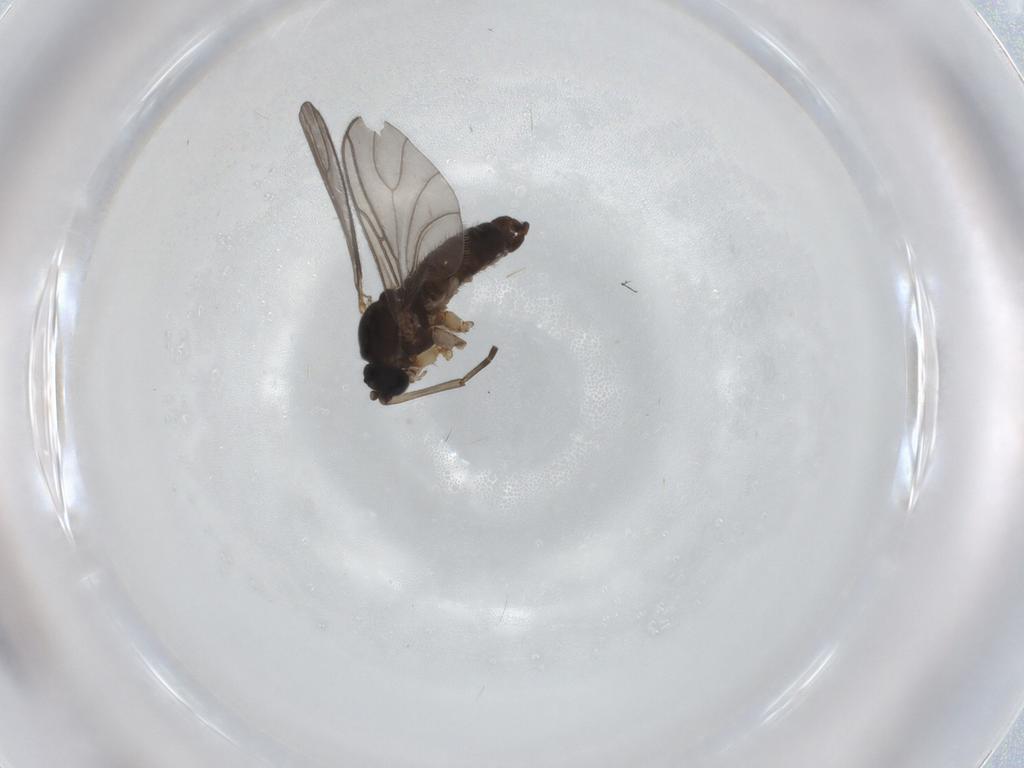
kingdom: Animalia
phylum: Arthropoda
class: Insecta
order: Diptera
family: Sciaridae
